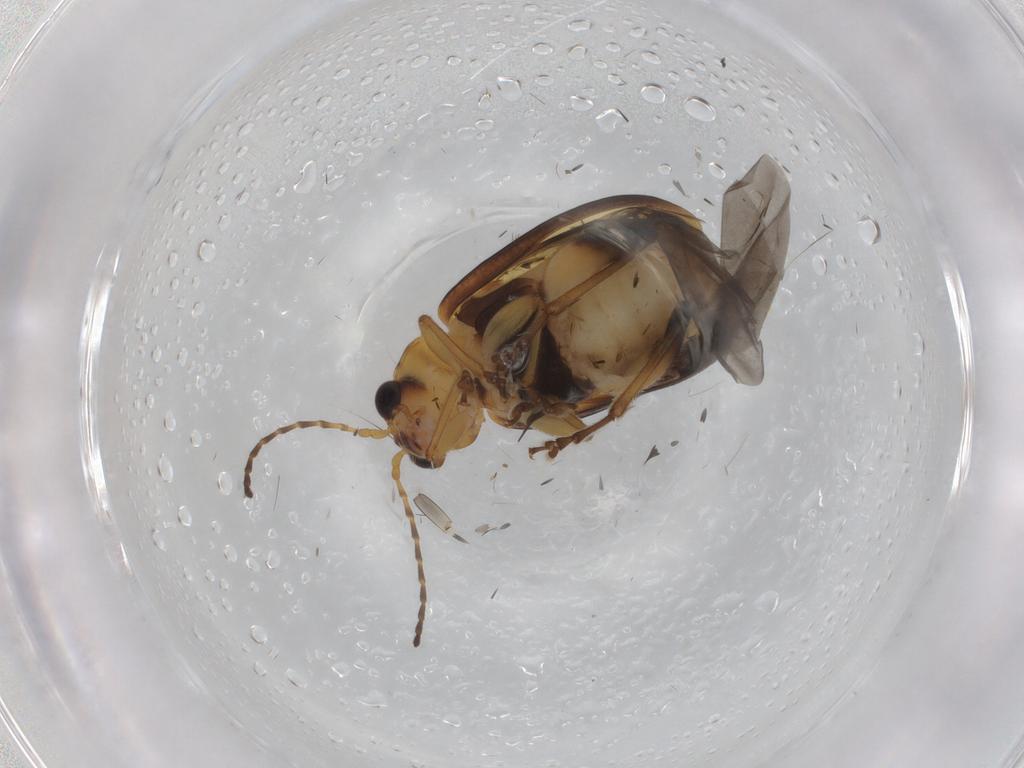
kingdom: Animalia
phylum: Arthropoda
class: Insecta
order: Coleoptera
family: Chrysomelidae
